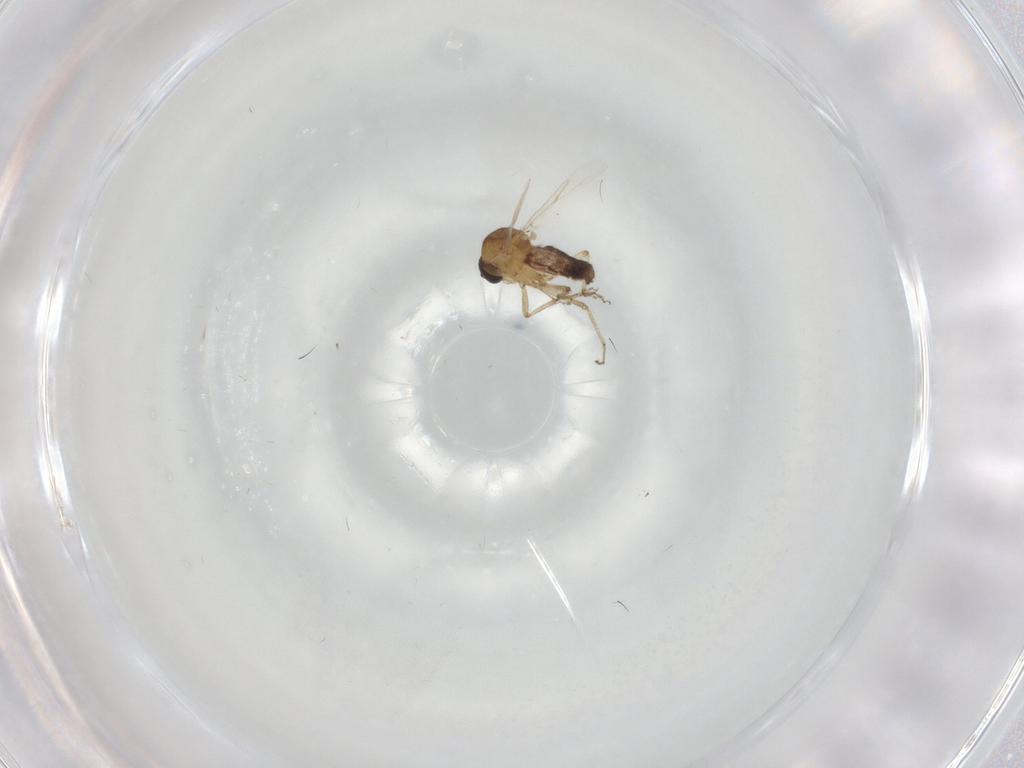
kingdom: Animalia
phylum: Arthropoda
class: Insecta
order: Diptera
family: Ceratopogonidae
